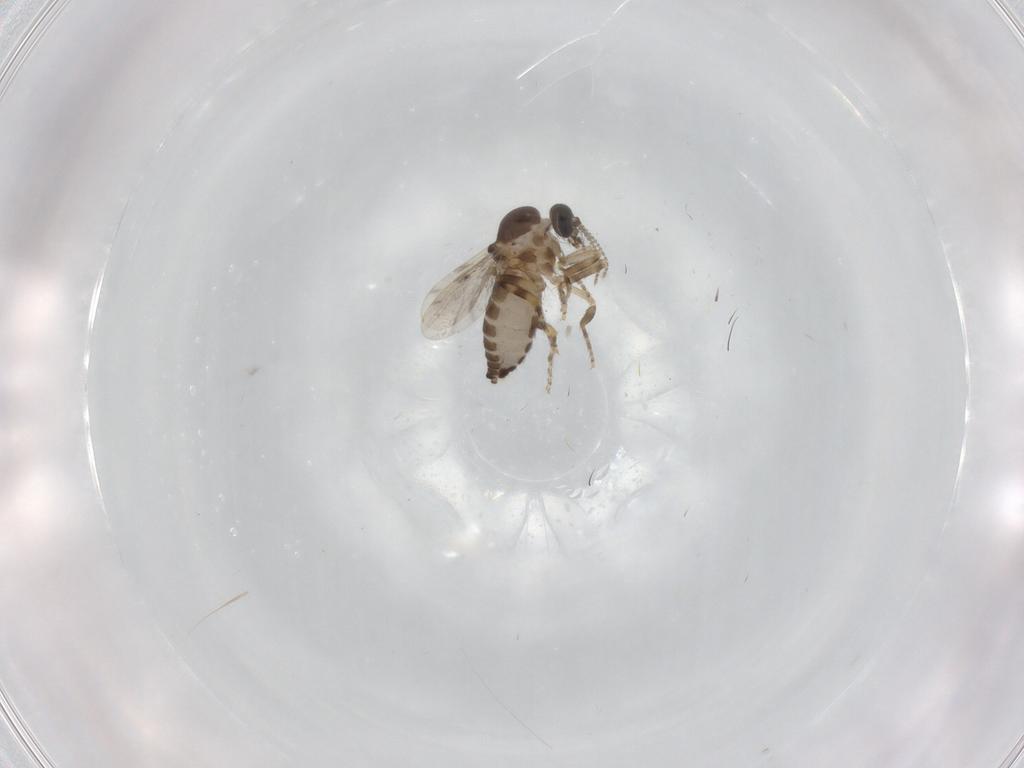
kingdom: Animalia
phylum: Arthropoda
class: Insecta
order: Diptera
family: Ceratopogonidae
